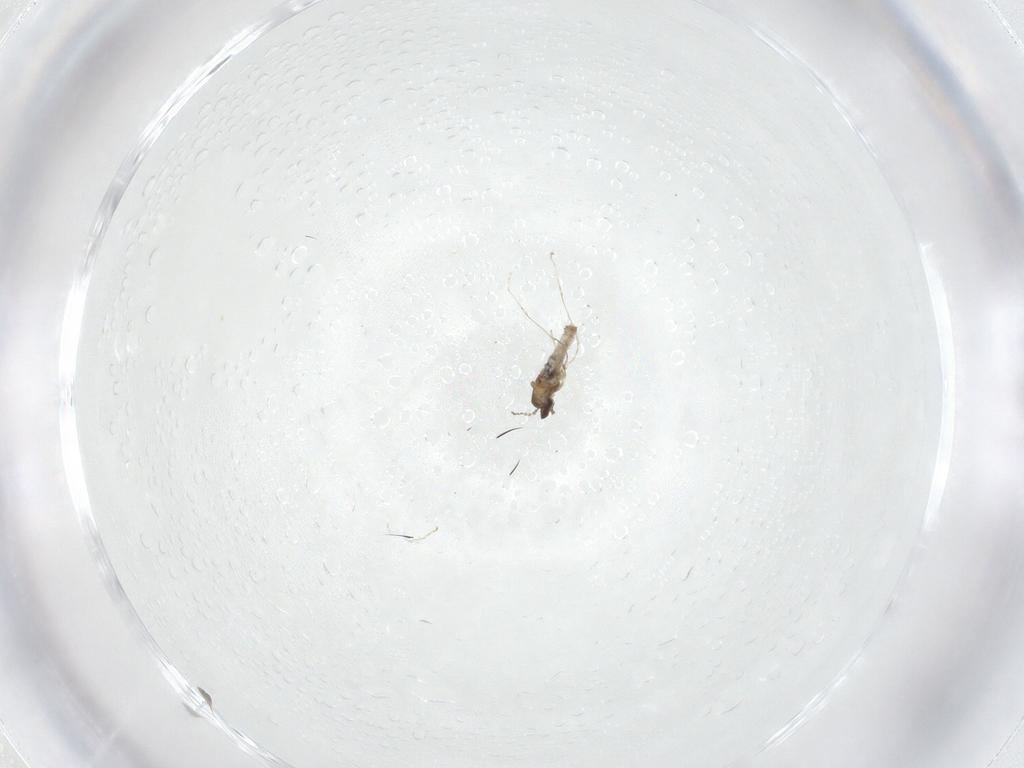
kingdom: Animalia
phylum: Arthropoda
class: Insecta
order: Diptera
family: Cecidomyiidae
